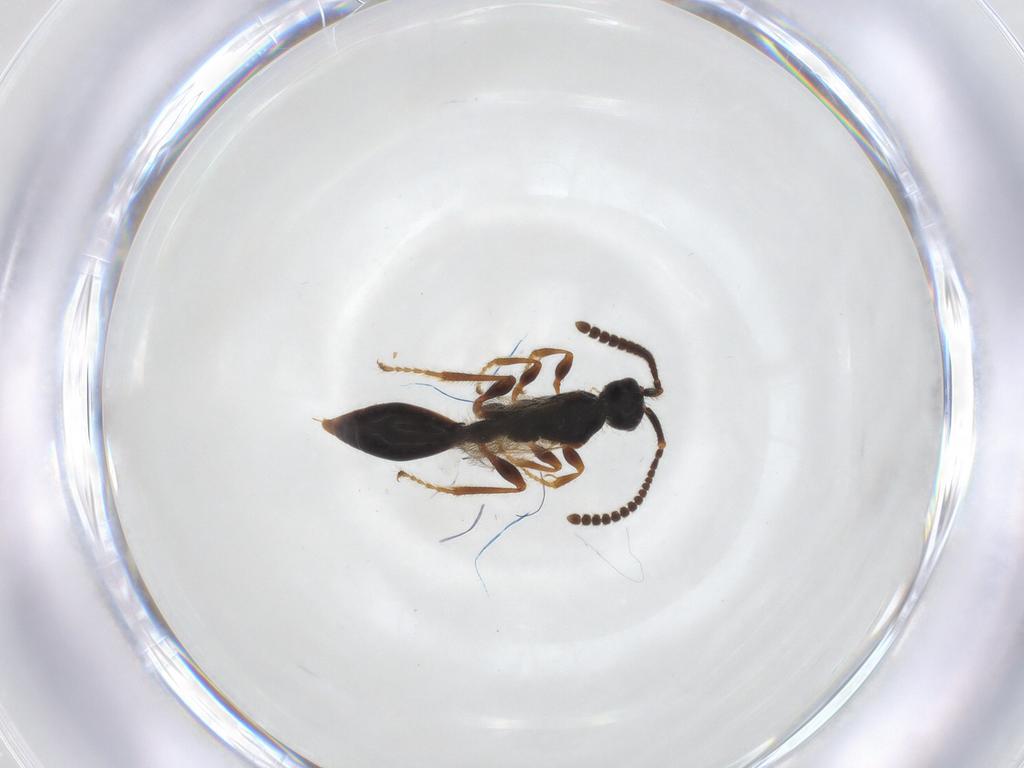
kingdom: Animalia
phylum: Arthropoda
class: Insecta
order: Hymenoptera
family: Diapriidae
